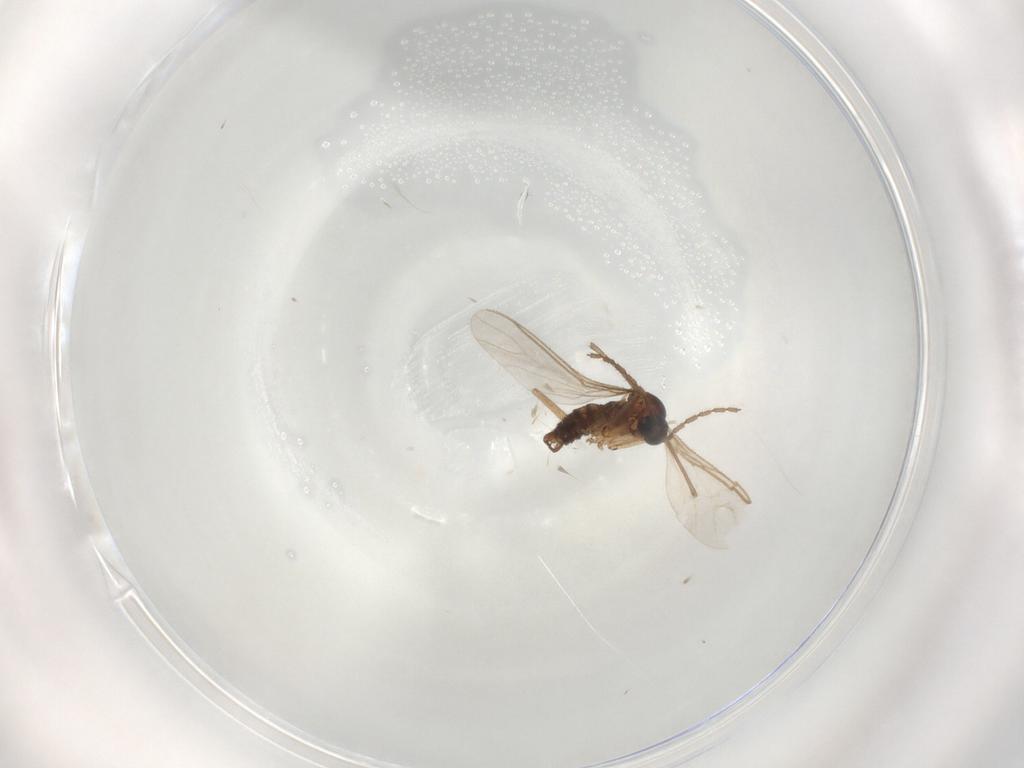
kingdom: Animalia
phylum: Arthropoda
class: Insecta
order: Diptera
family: Sciaridae
